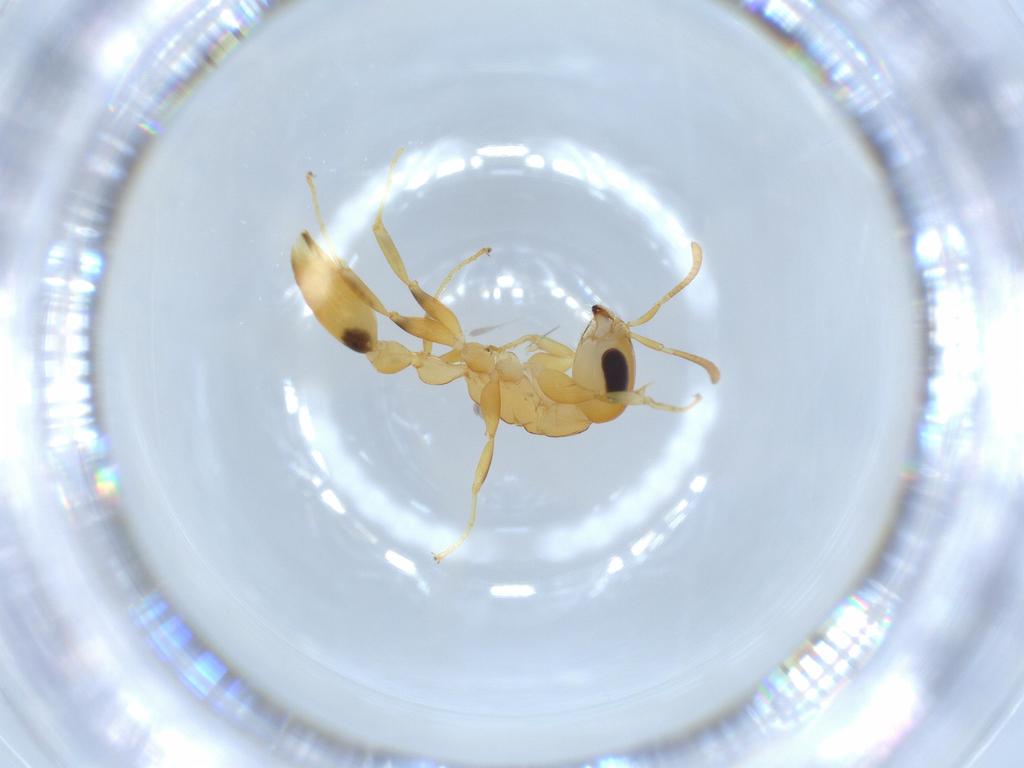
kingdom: Animalia
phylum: Arthropoda
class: Insecta
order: Hymenoptera
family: Formicidae
